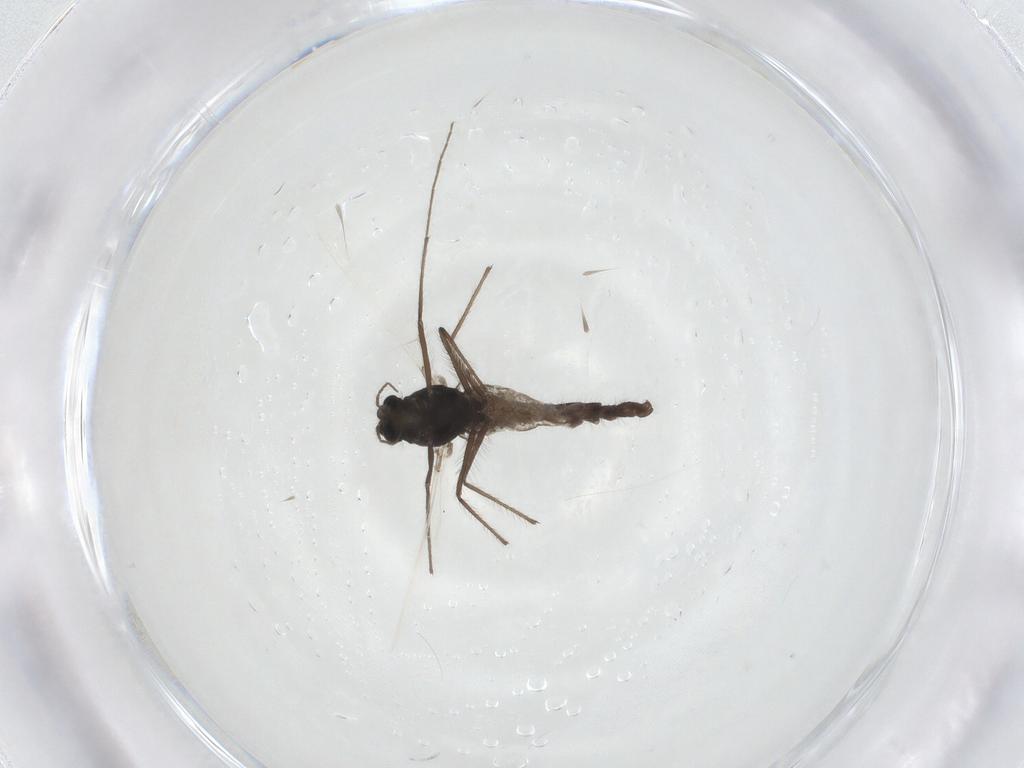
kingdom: Animalia
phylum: Arthropoda
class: Insecta
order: Diptera
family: Chironomidae
